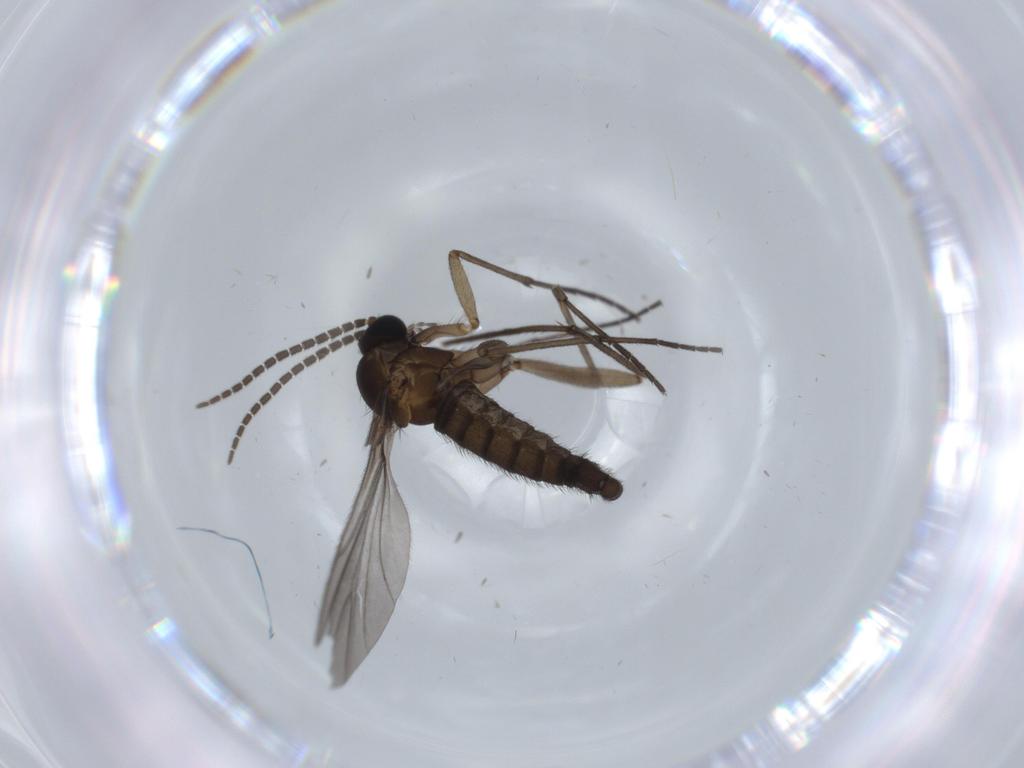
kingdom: Animalia
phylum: Arthropoda
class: Insecta
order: Diptera
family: Sciaridae
